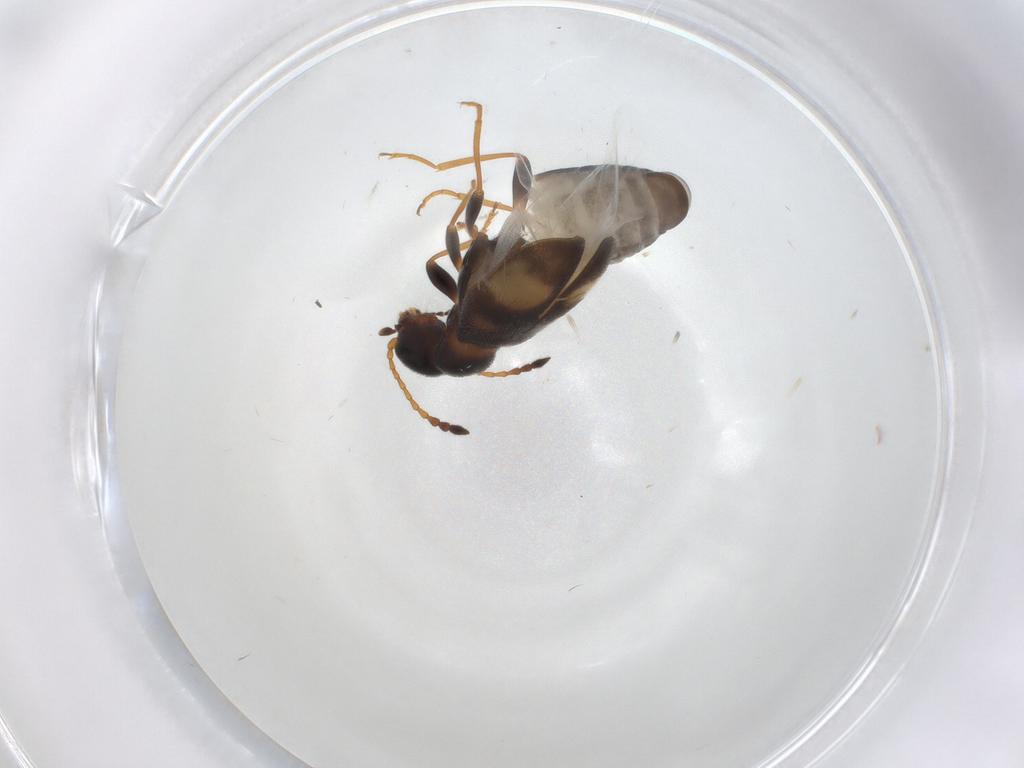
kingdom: Animalia
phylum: Arthropoda
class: Insecta
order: Coleoptera
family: Anthicidae
